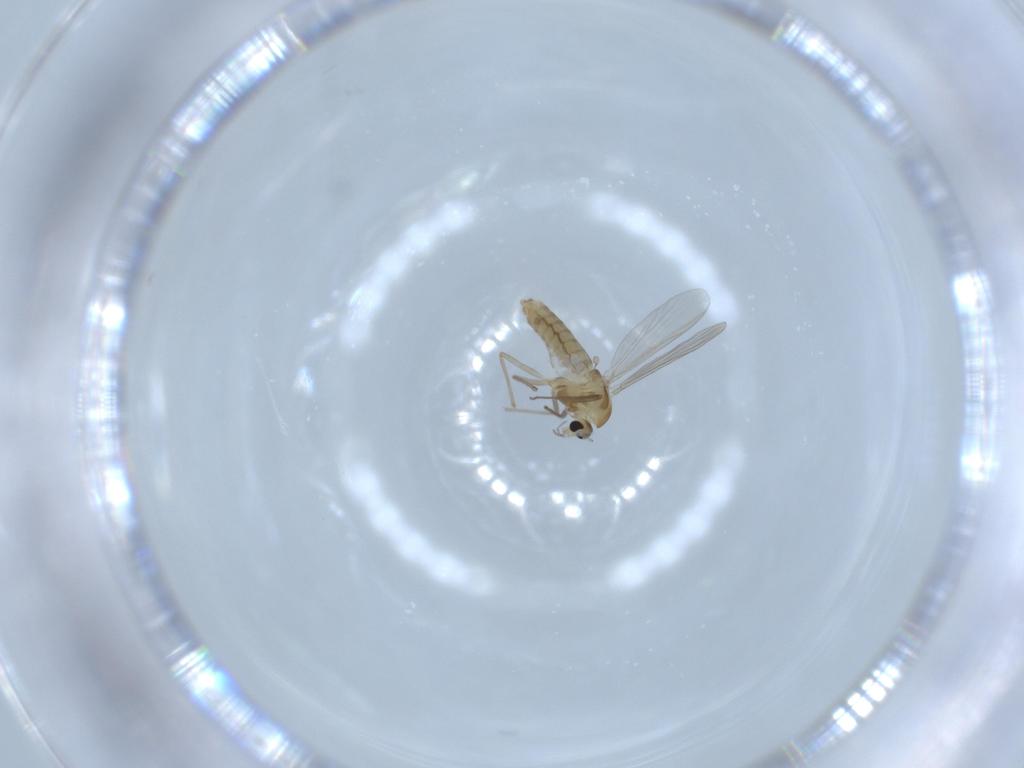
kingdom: Animalia
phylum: Arthropoda
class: Insecta
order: Diptera
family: Chironomidae
